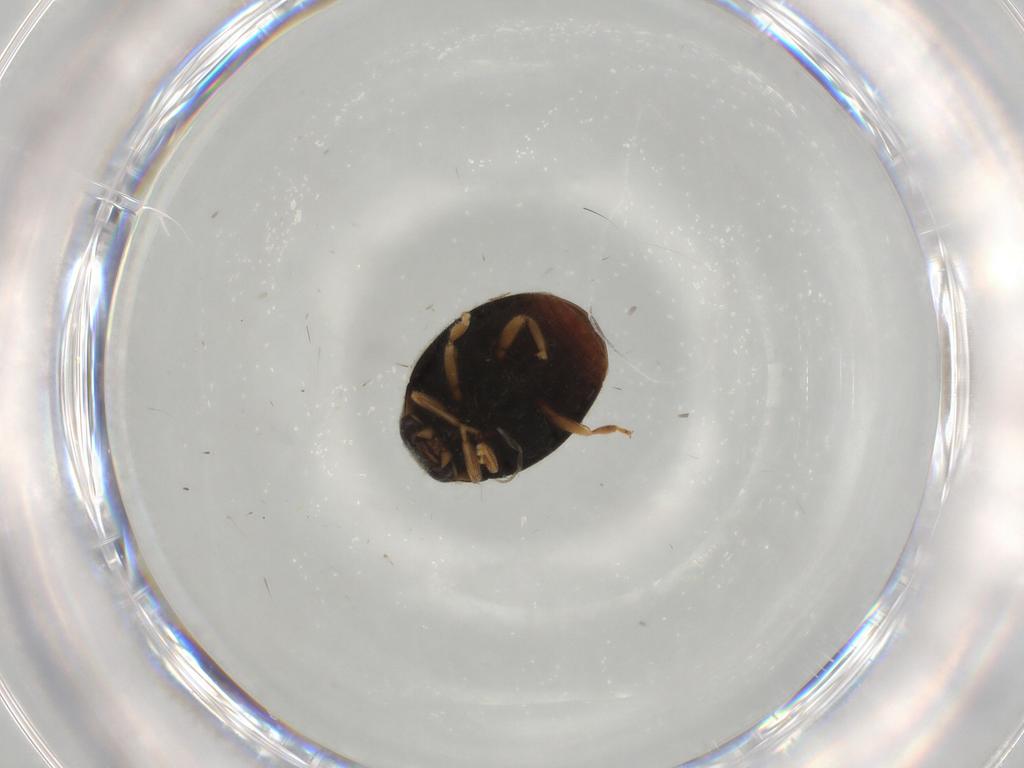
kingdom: Animalia
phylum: Arthropoda
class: Insecta
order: Coleoptera
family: Coccinellidae
